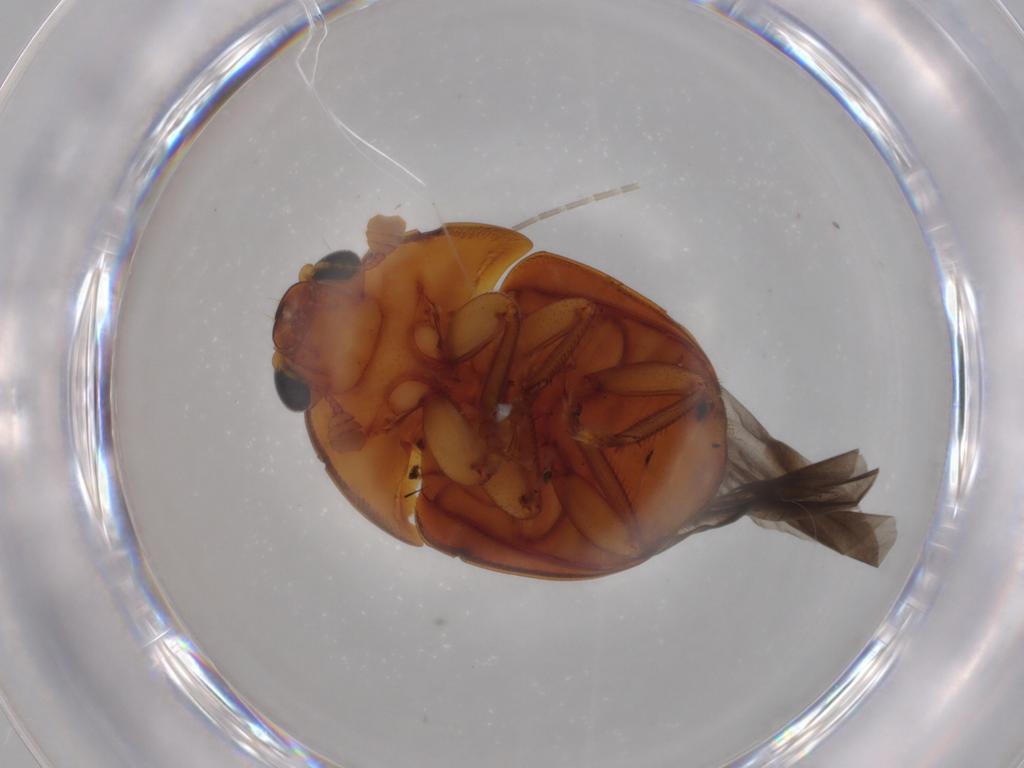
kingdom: Animalia
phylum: Arthropoda
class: Insecta
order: Coleoptera
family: Nitidulidae
